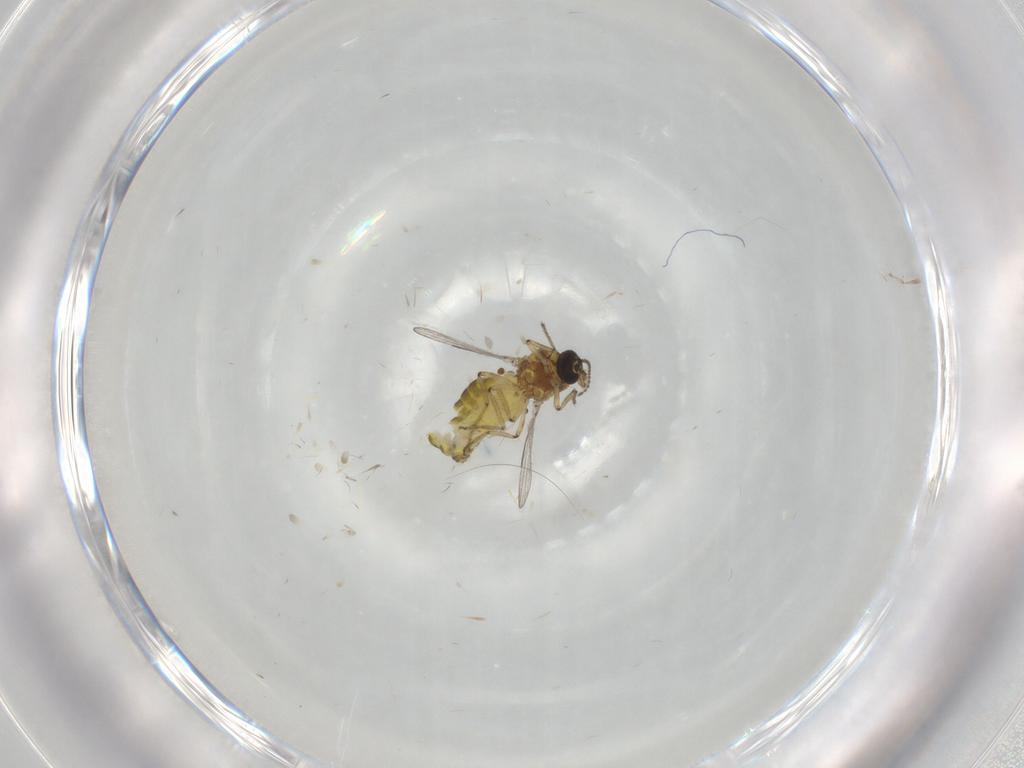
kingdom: Animalia
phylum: Arthropoda
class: Insecta
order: Diptera
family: Ceratopogonidae
